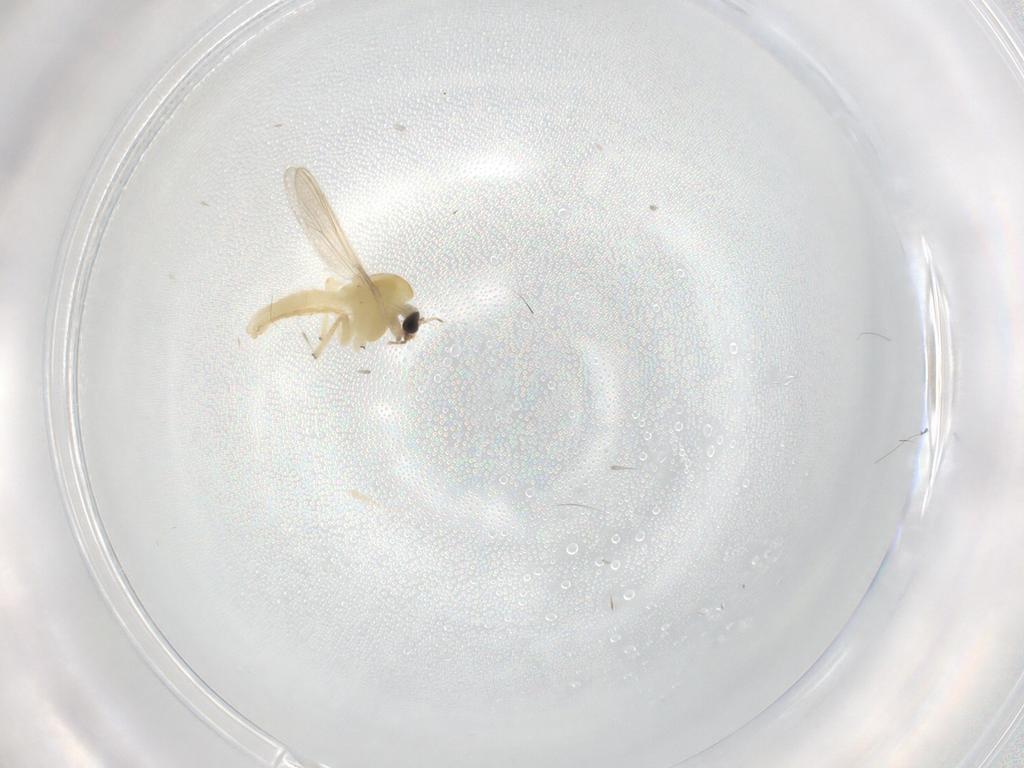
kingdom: Animalia
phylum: Arthropoda
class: Insecta
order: Diptera
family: Chironomidae
